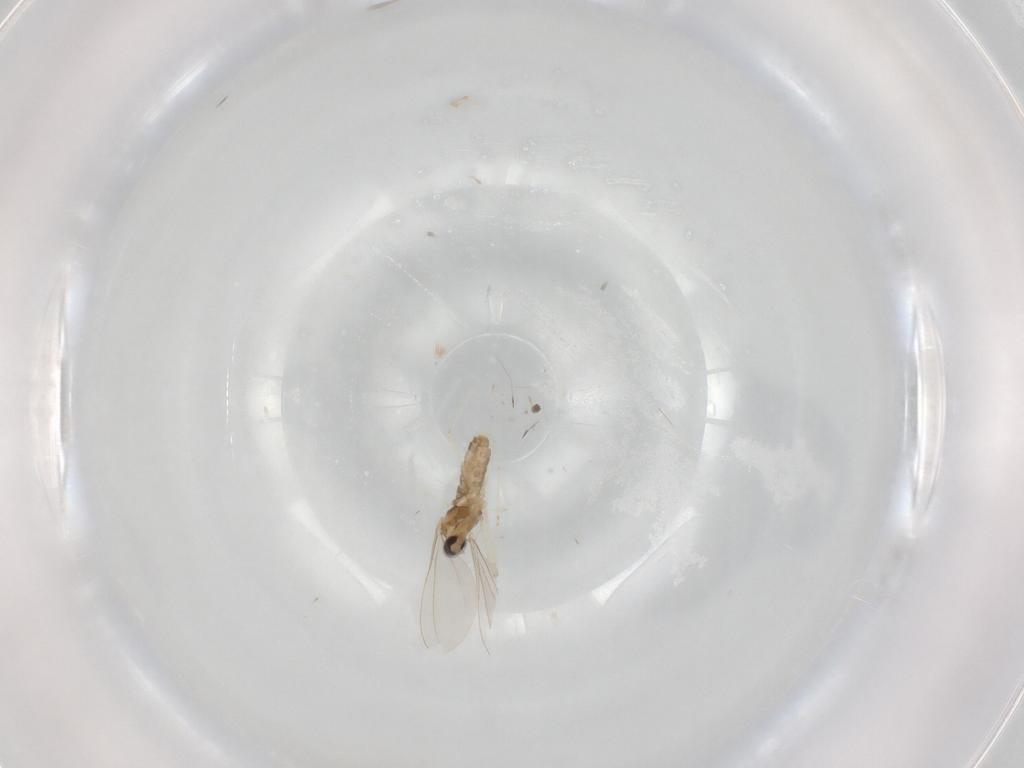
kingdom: Animalia
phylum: Arthropoda
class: Insecta
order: Diptera
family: Cecidomyiidae
